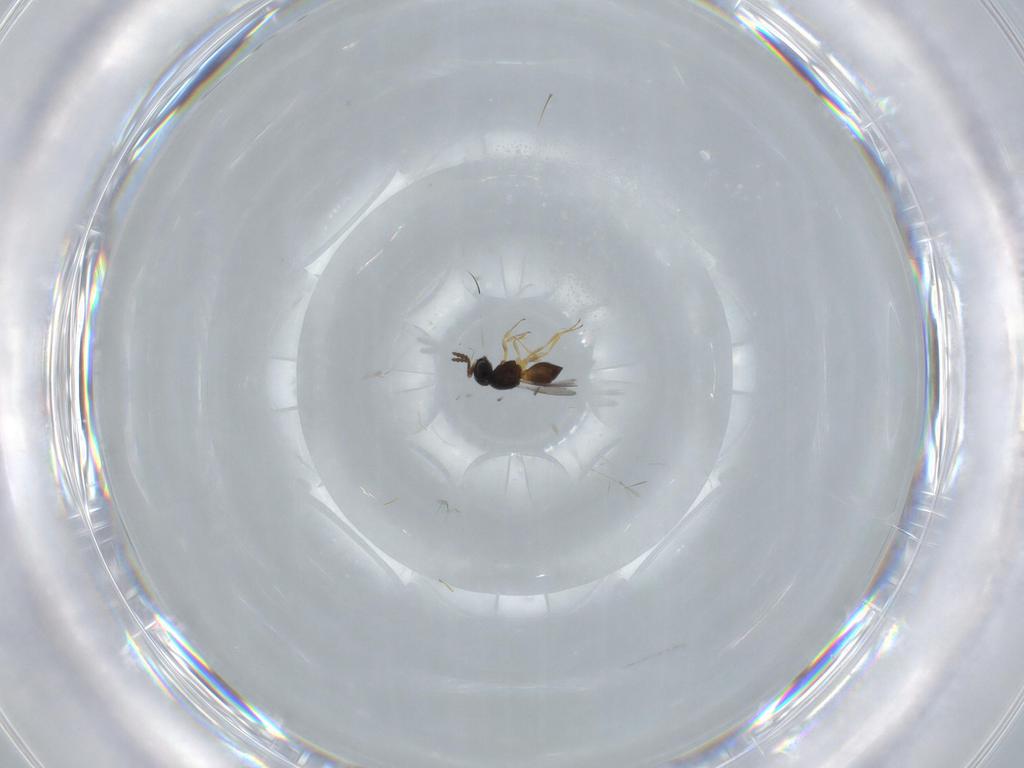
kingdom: Animalia
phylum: Arthropoda
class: Insecta
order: Hymenoptera
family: Scelionidae
